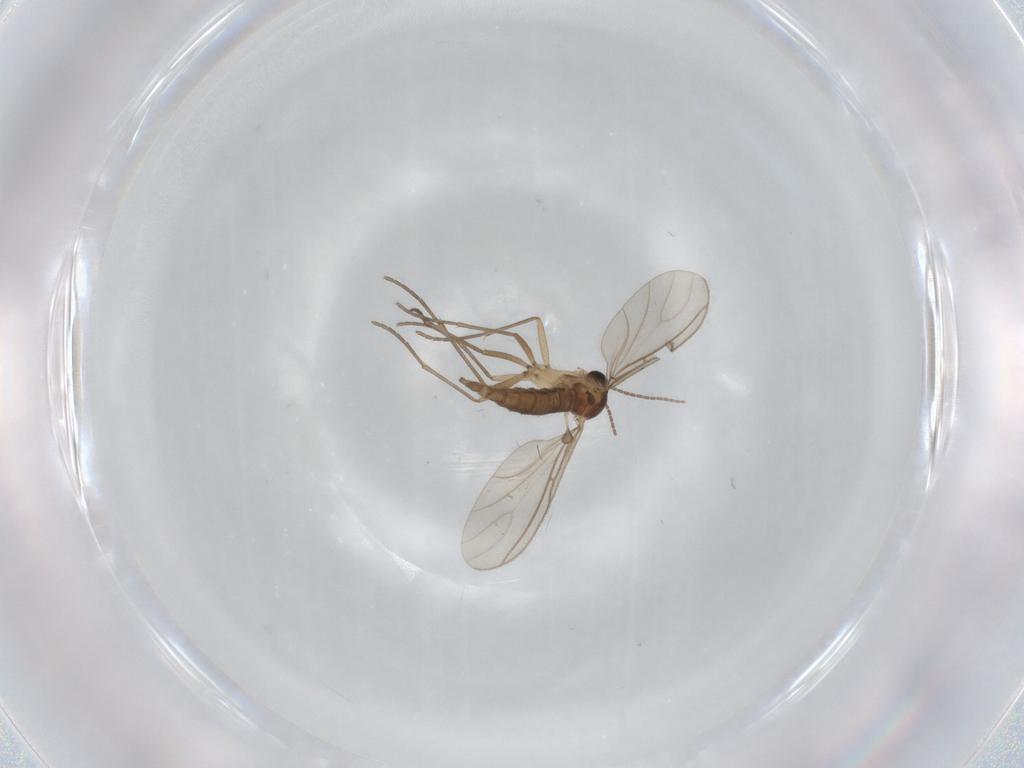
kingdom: Animalia
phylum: Arthropoda
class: Insecta
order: Diptera
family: Sciaridae
